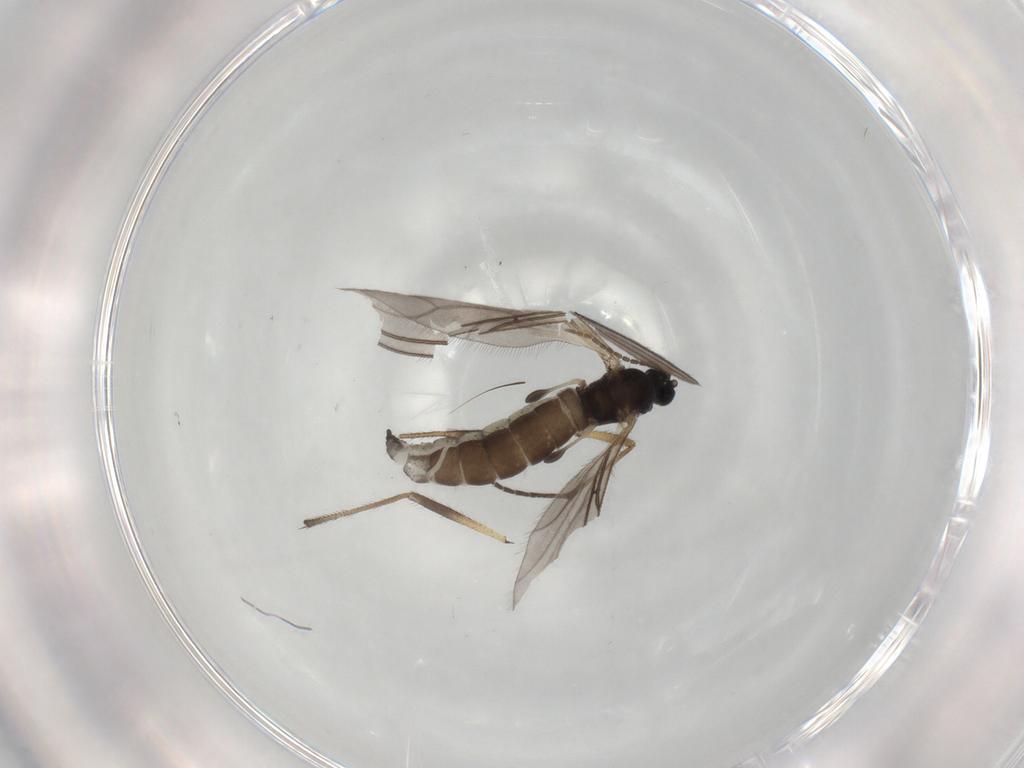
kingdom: Animalia
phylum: Arthropoda
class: Insecta
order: Diptera
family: Sciaridae
